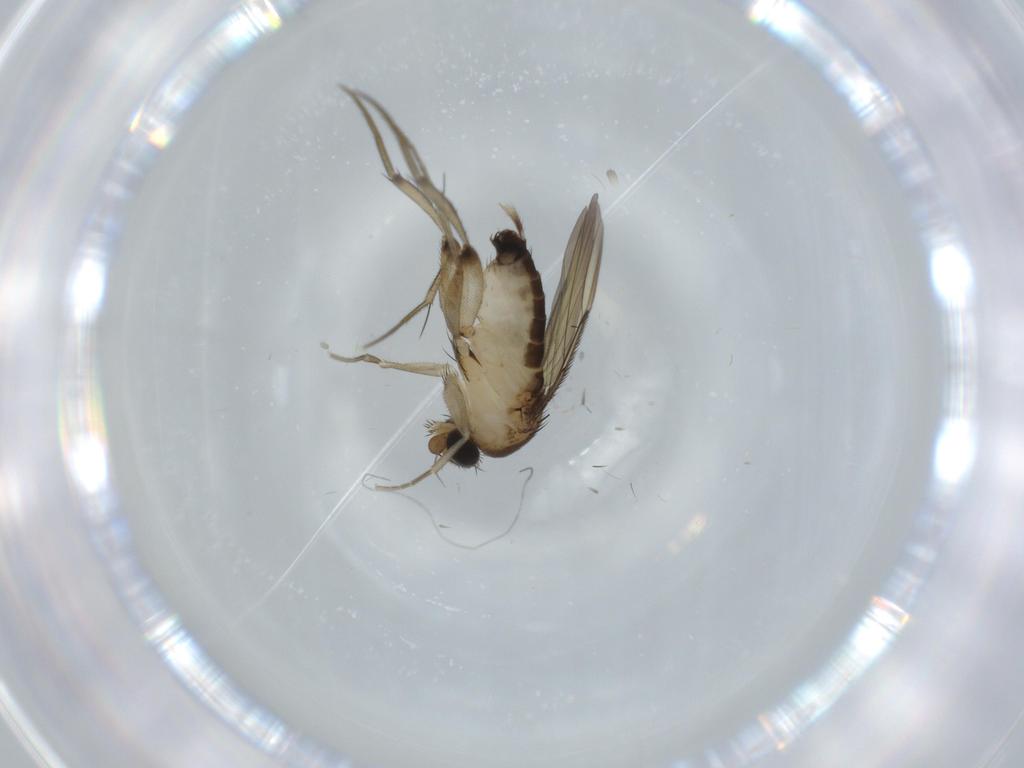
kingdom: Animalia
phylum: Arthropoda
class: Insecta
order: Diptera
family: Phoridae
